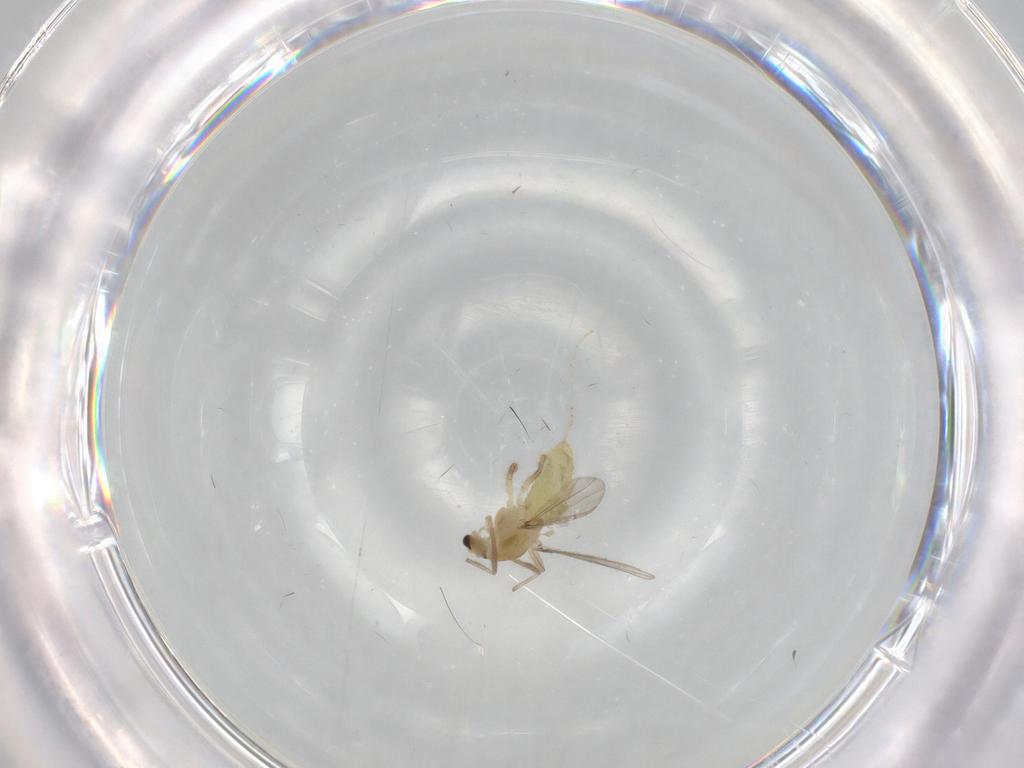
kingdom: Animalia
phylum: Arthropoda
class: Insecta
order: Diptera
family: Chironomidae
